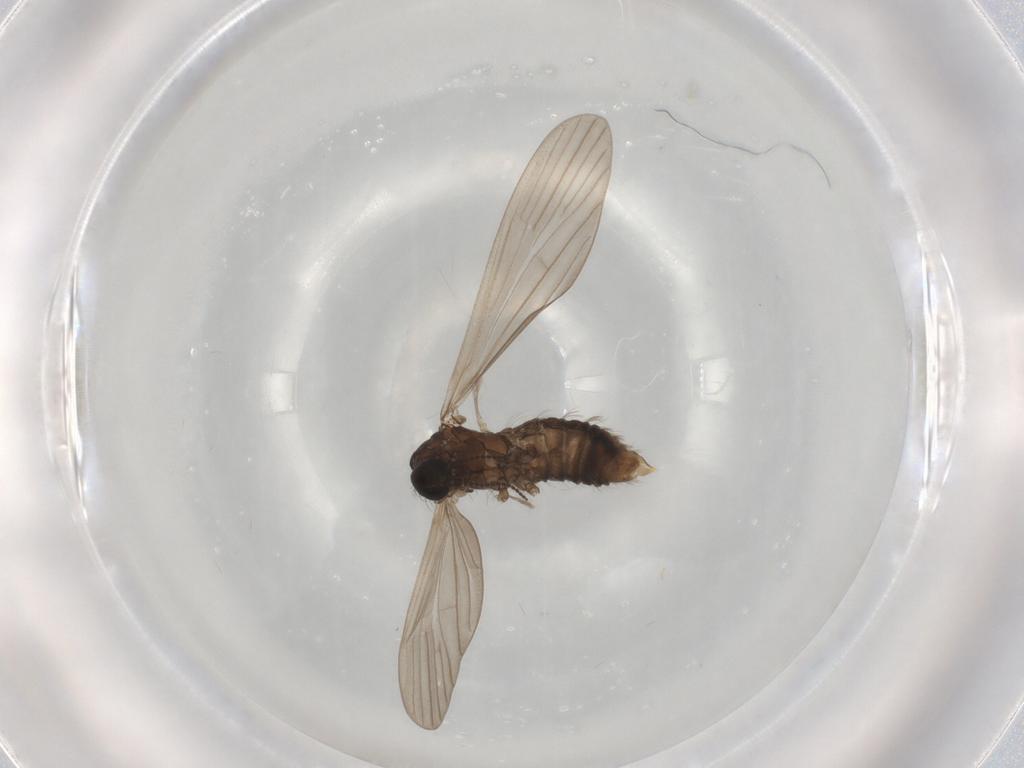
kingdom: Animalia
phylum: Arthropoda
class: Insecta
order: Diptera
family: Limoniidae
